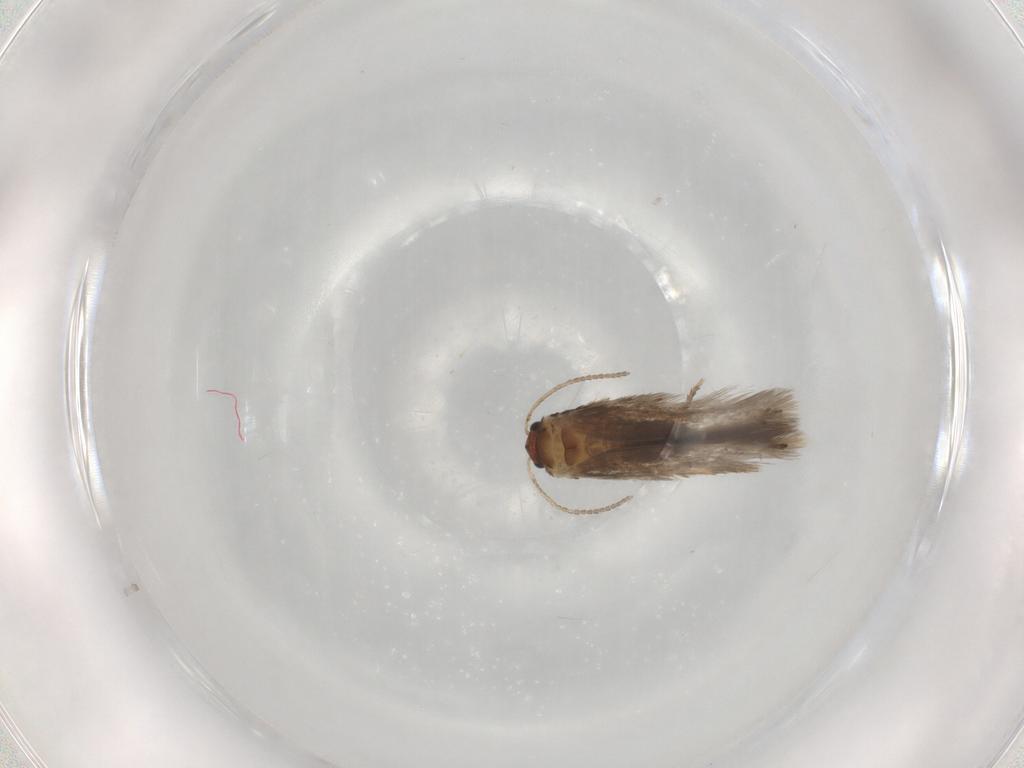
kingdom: Animalia
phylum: Arthropoda
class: Insecta
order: Lepidoptera
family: Nepticulidae
